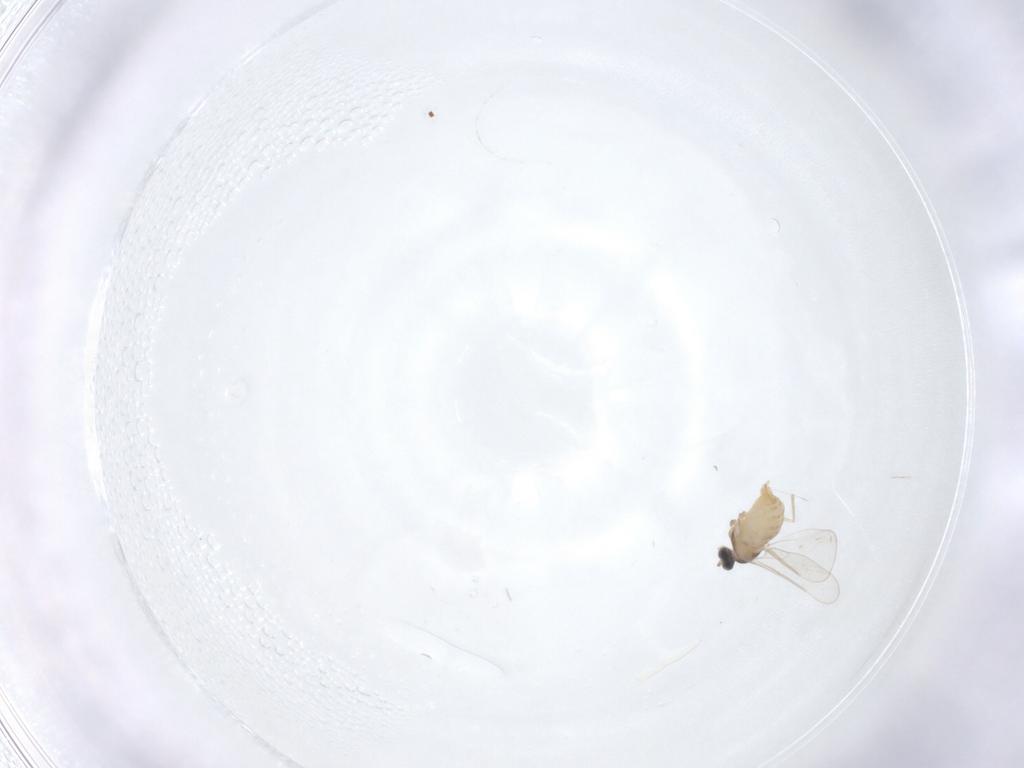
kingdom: Animalia
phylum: Arthropoda
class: Insecta
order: Diptera
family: Cecidomyiidae
